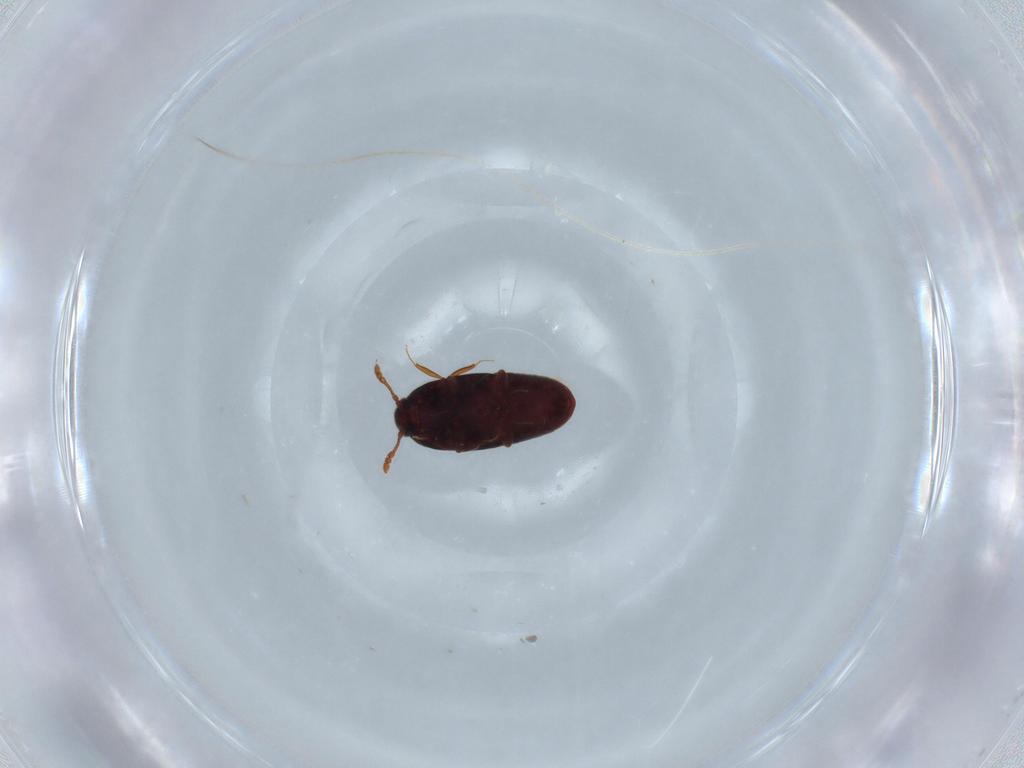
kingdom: Animalia
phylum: Arthropoda
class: Insecta
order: Coleoptera
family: Throscidae
